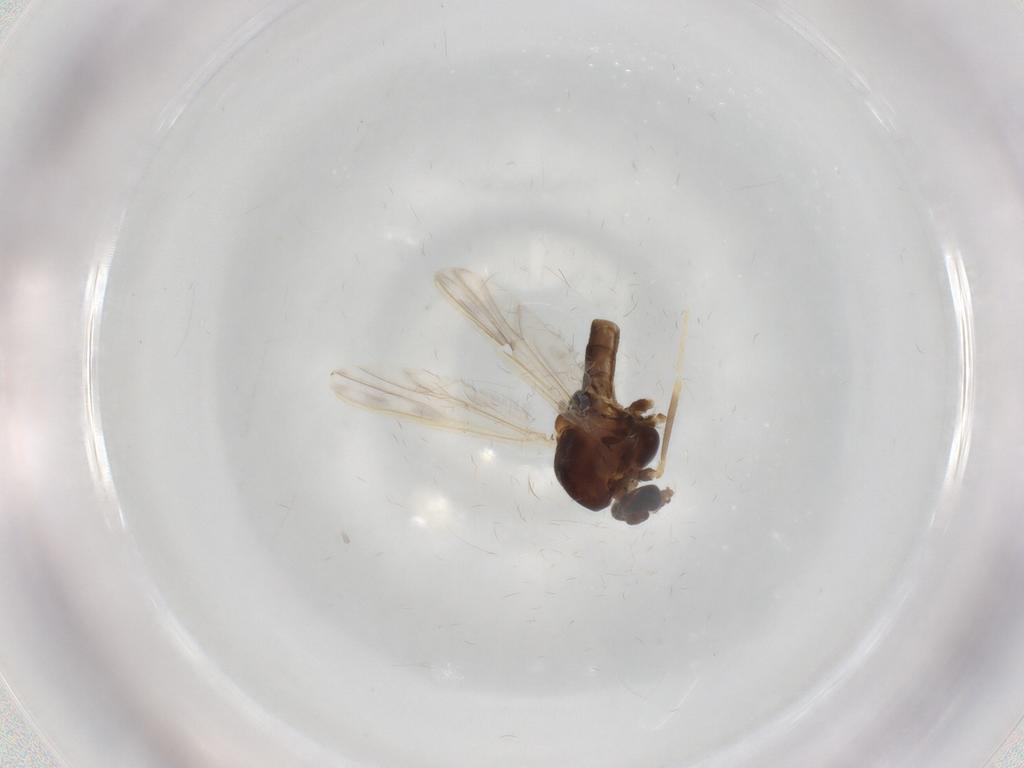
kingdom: Animalia
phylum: Arthropoda
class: Insecta
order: Diptera
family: Chironomidae
